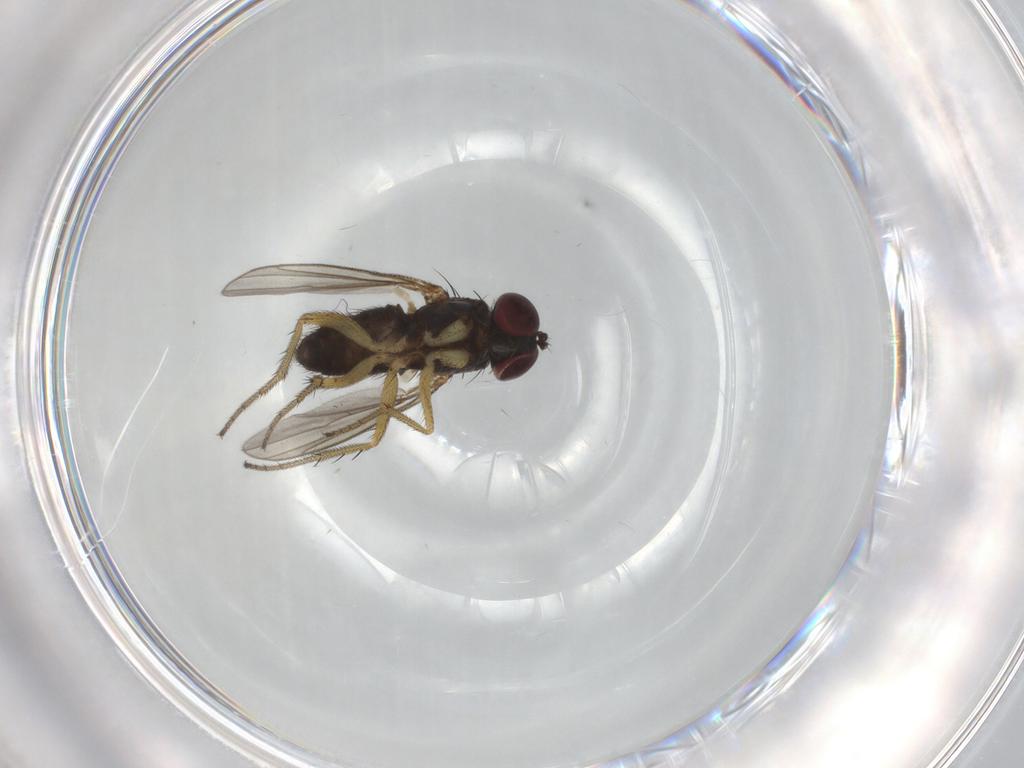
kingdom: Animalia
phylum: Arthropoda
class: Insecta
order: Diptera
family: Dolichopodidae
